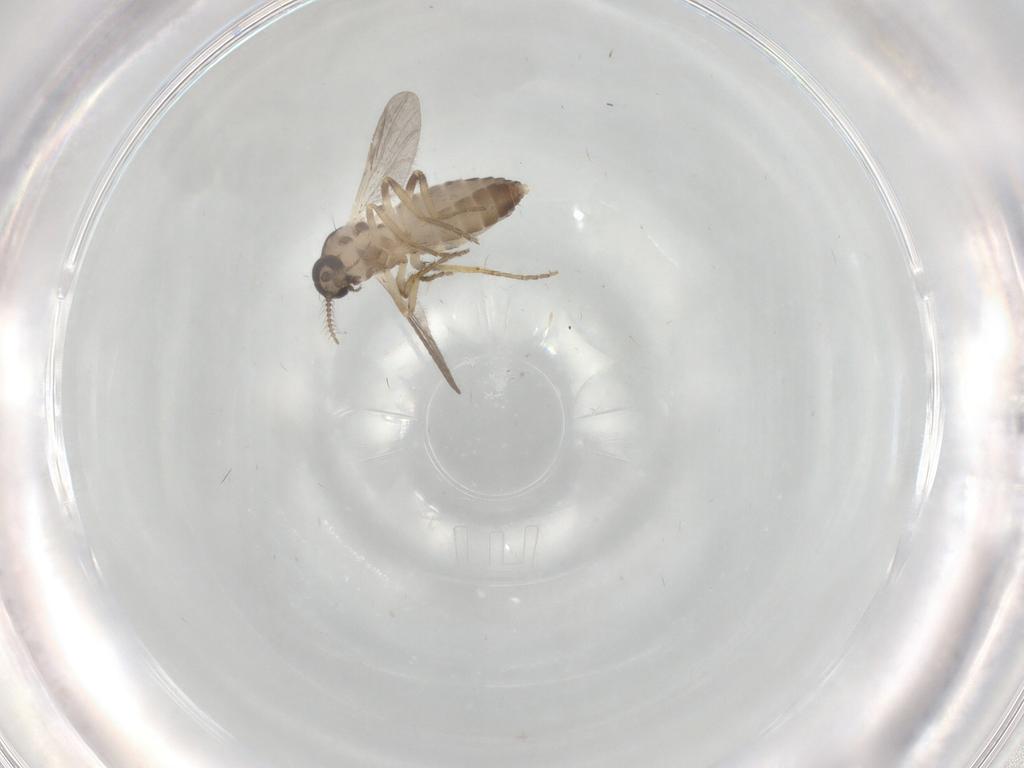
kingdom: Animalia
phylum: Arthropoda
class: Insecta
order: Diptera
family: Ceratopogonidae
